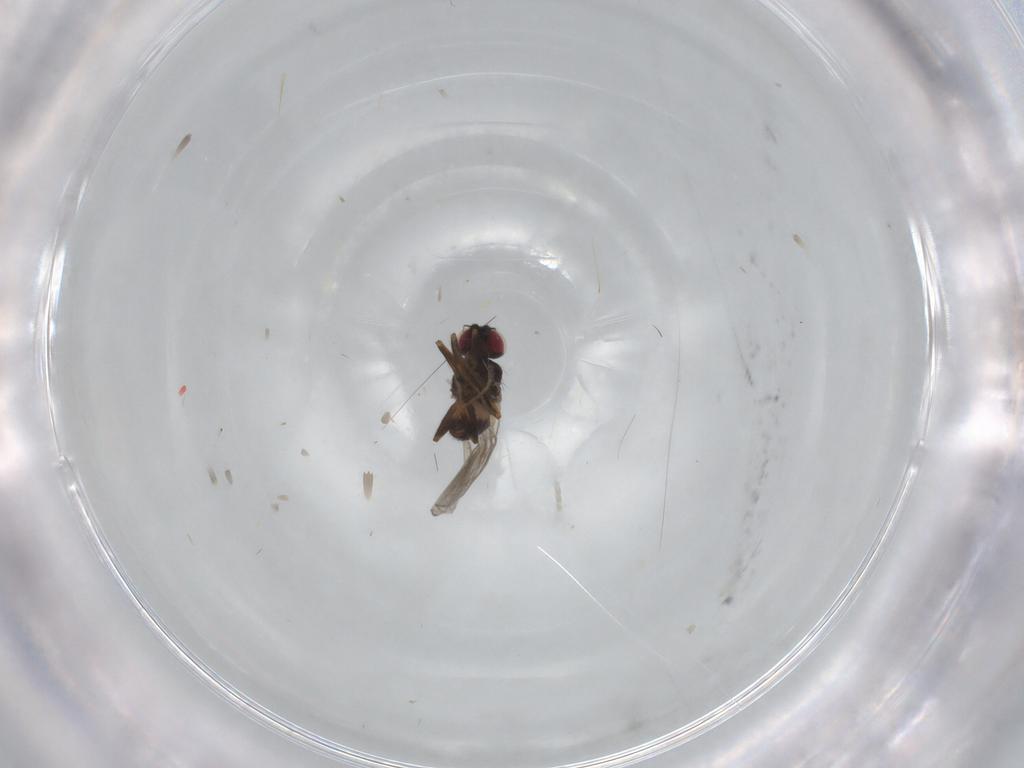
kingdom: Animalia
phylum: Arthropoda
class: Insecta
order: Diptera
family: Chloropidae
